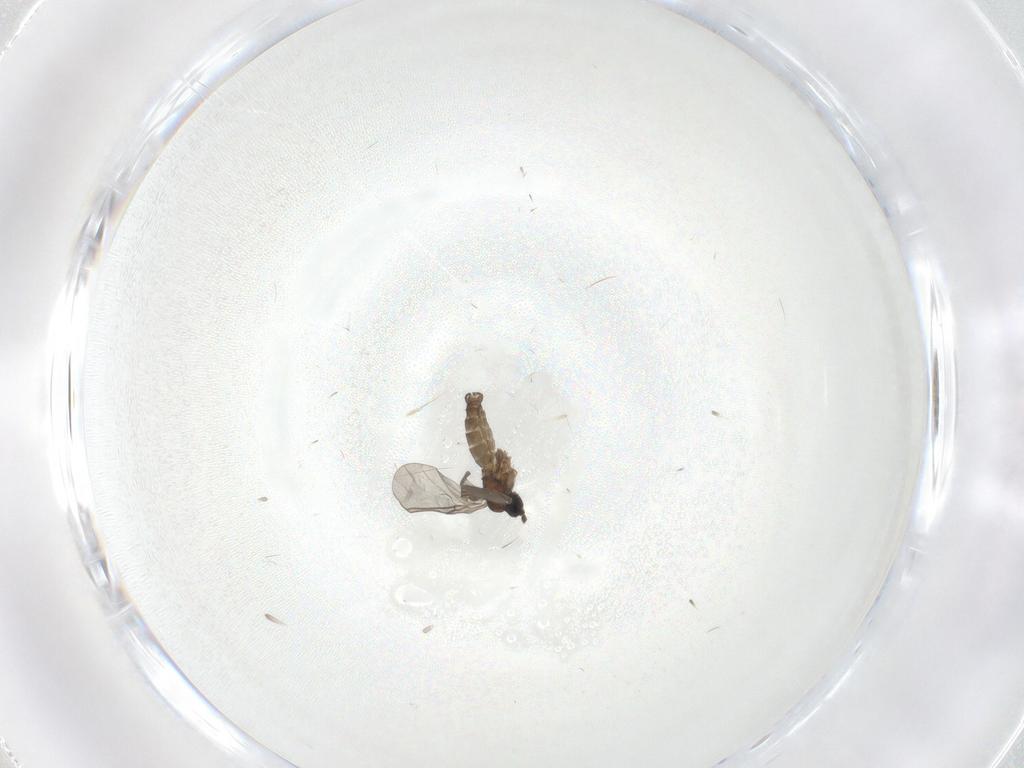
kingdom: Animalia
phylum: Arthropoda
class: Insecta
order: Diptera
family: Sciaridae
